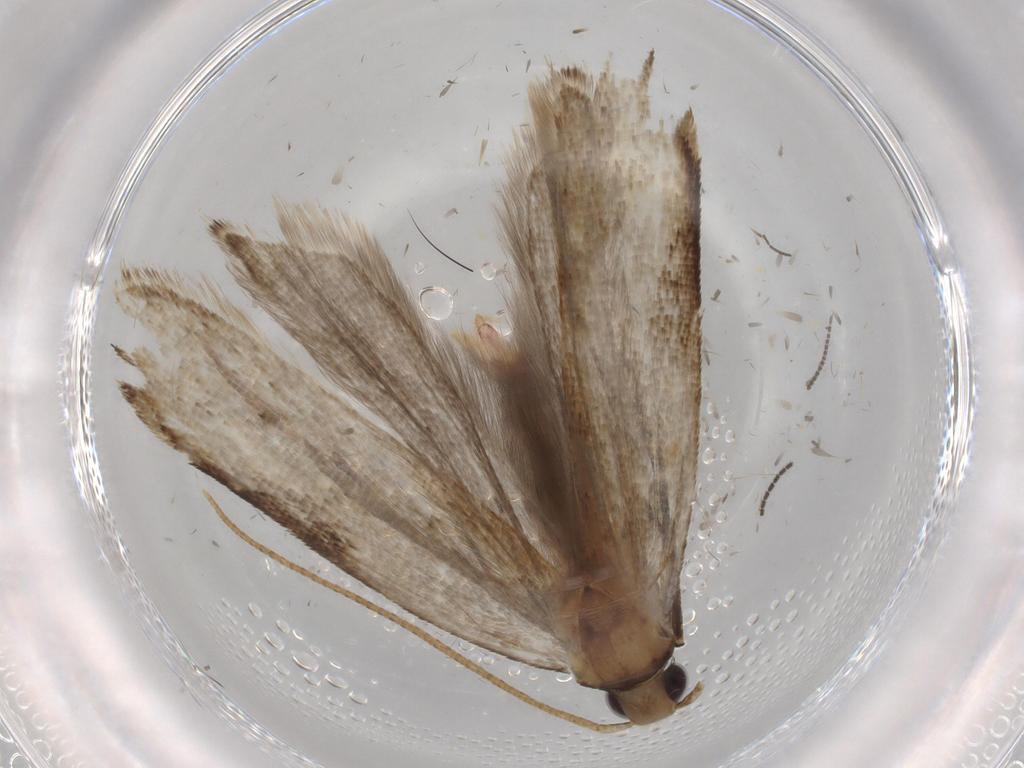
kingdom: Animalia
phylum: Arthropoda
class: Insecta
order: Lepidoptera
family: Gelechiidae
